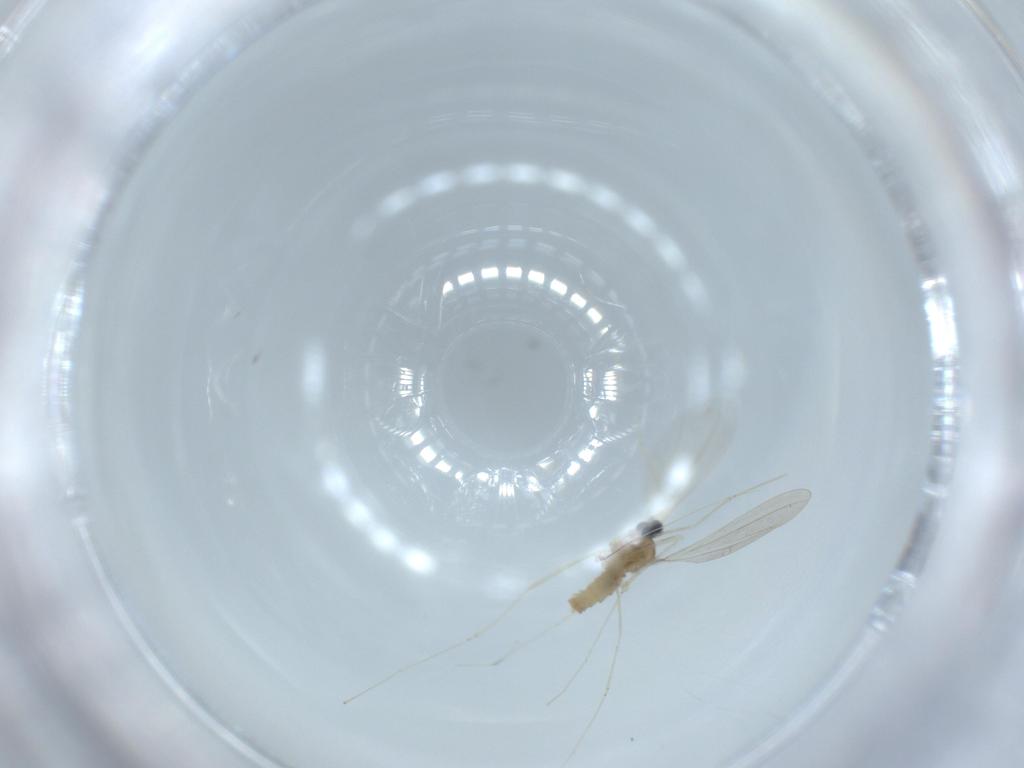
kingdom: Animalia
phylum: Arthropoda
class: Insecta
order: Diptera
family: Cecidomyiidae
